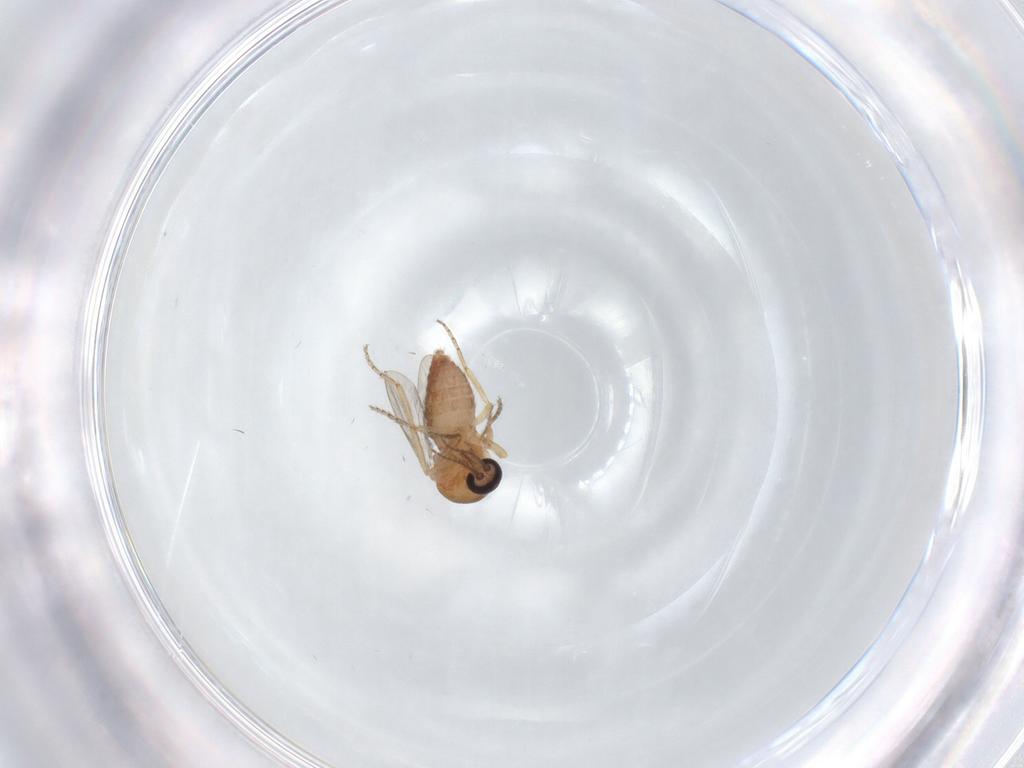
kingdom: Animalia
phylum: Arthropoda
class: Insecta
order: Diptera
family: Ceratopogonidae
